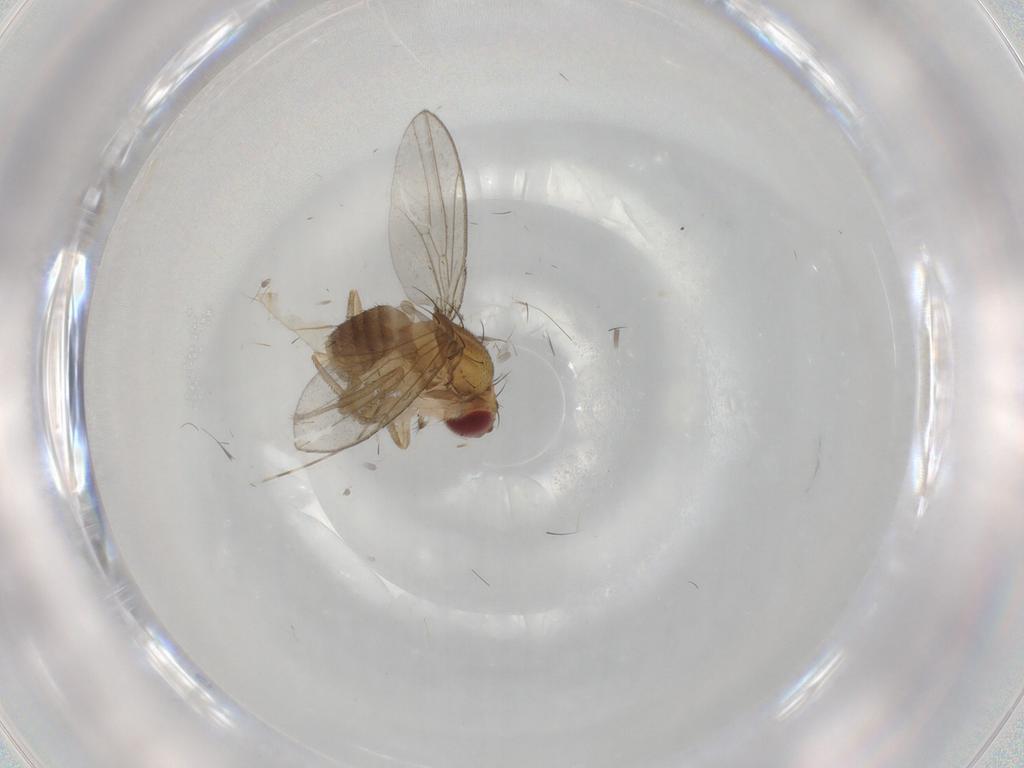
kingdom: Animalia
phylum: Arthropoda
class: Insecta
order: Diptera
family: Drosophilidae
